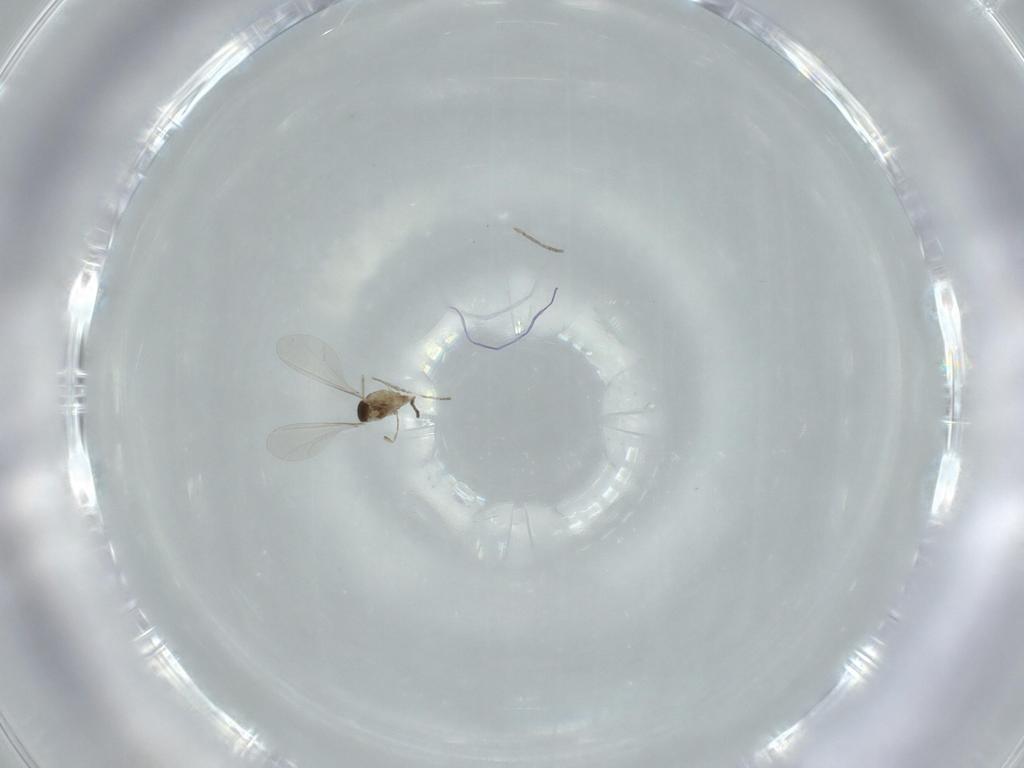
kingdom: Animalia
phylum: Arthropoda
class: Insecta
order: Diptera
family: Cecidomyiidae
